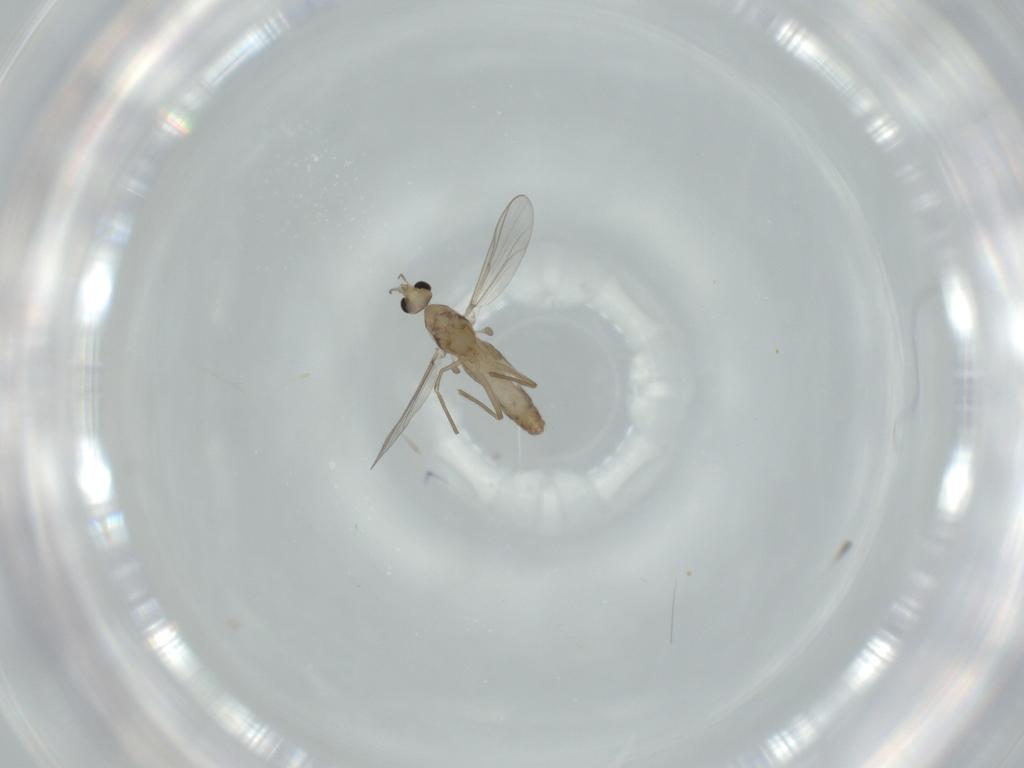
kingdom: Animalia
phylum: Arthropoda
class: Insecta
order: Diptera
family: Chironomidae
